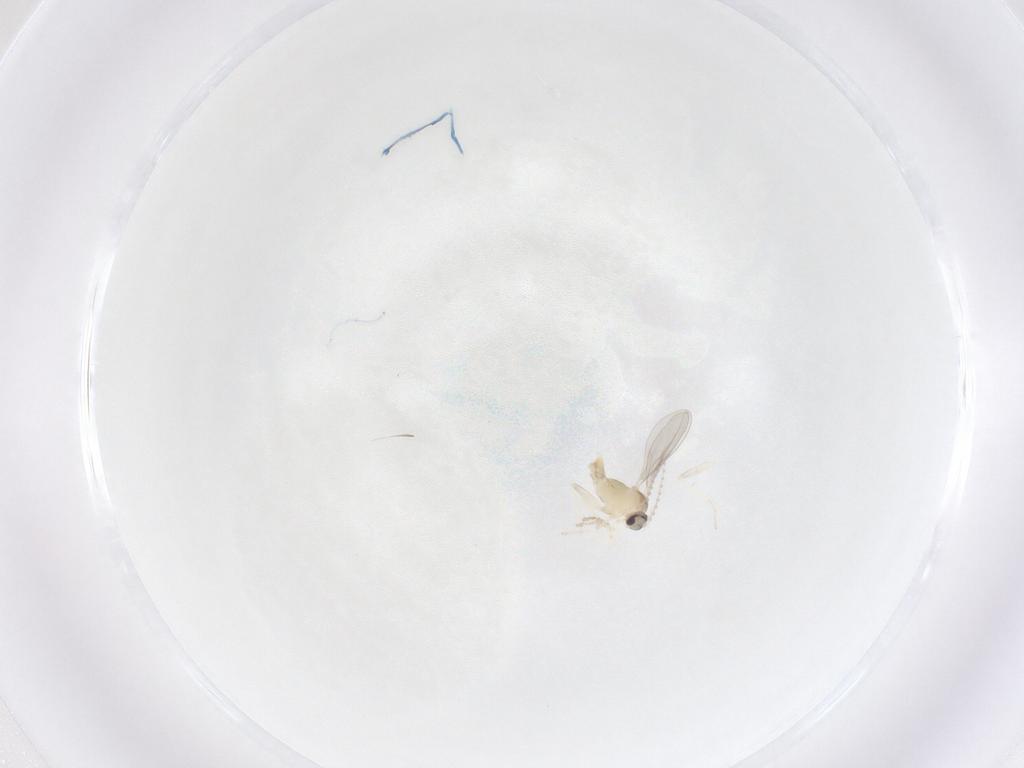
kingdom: Animalia
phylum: Arthropoda
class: Insecta
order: Diptera
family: Cecidomyiidae
